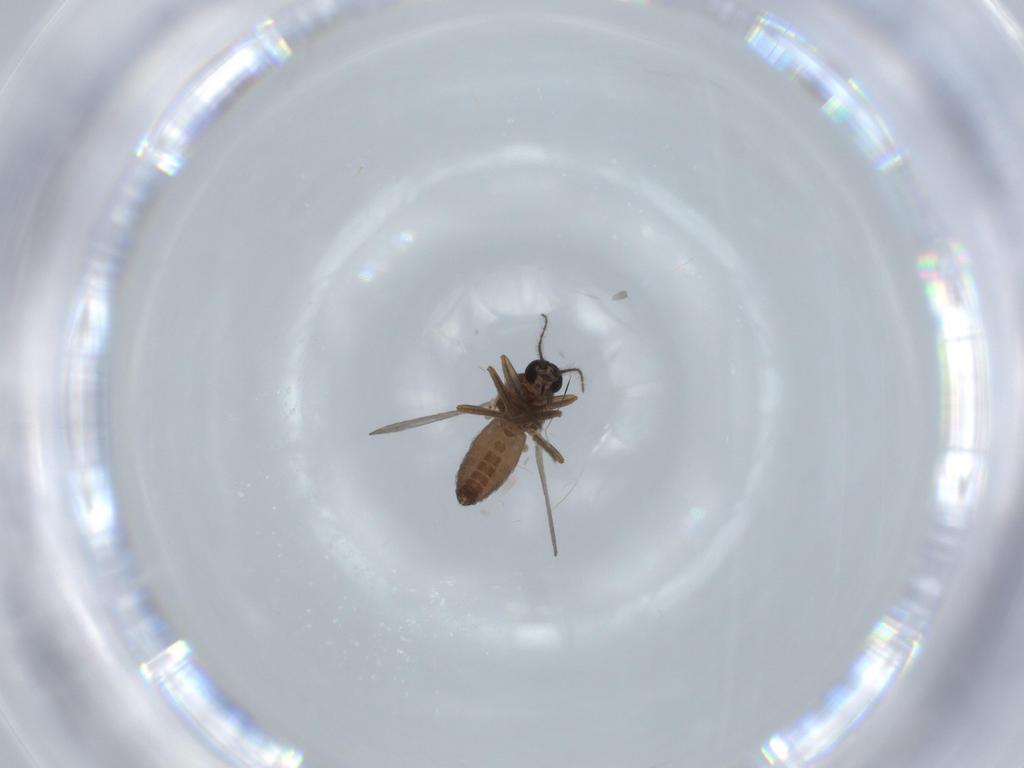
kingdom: Animalia
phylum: Arthropoda
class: Insecta
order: Diptera
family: Ceratopogonidae
